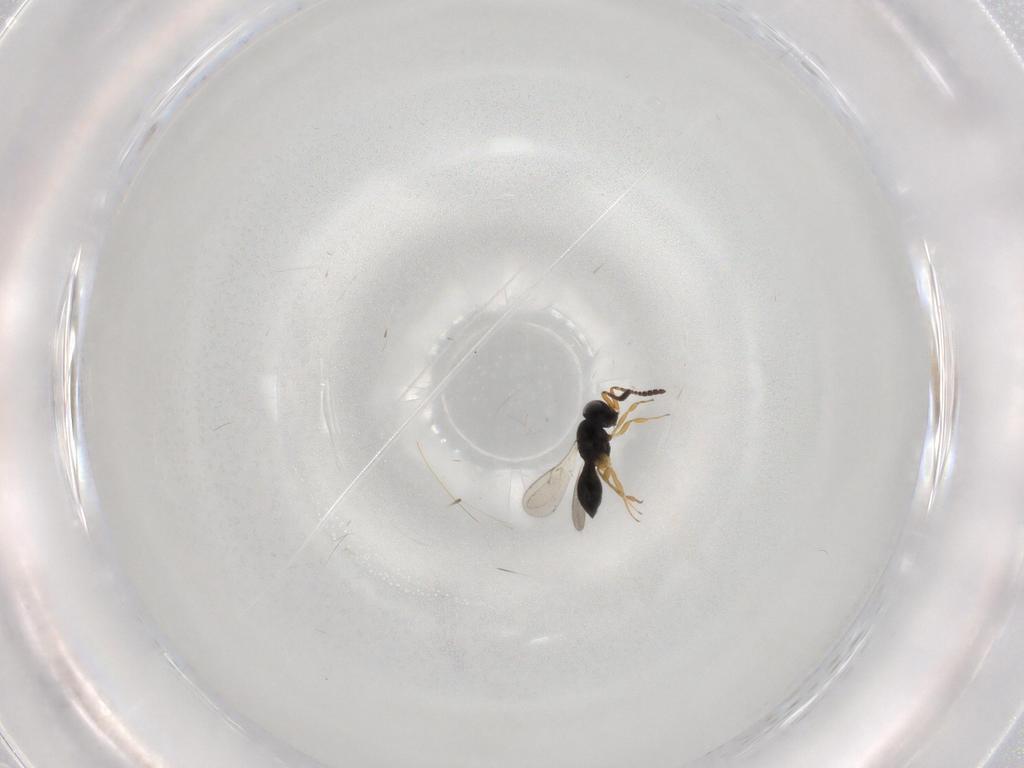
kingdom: Animalia
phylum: Arthropoda
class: Insecta
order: Hymenoptera
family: Scelionidae
